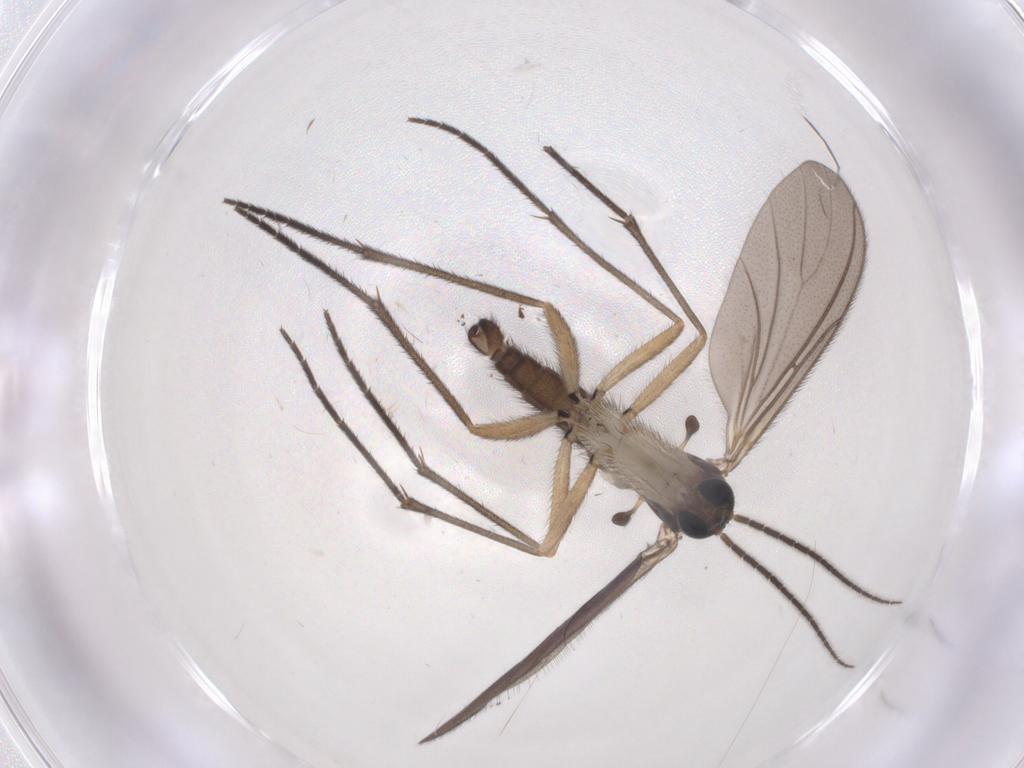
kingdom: Animalia
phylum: Arthropoda
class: Insecta
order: Diptera
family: Sciaridae
